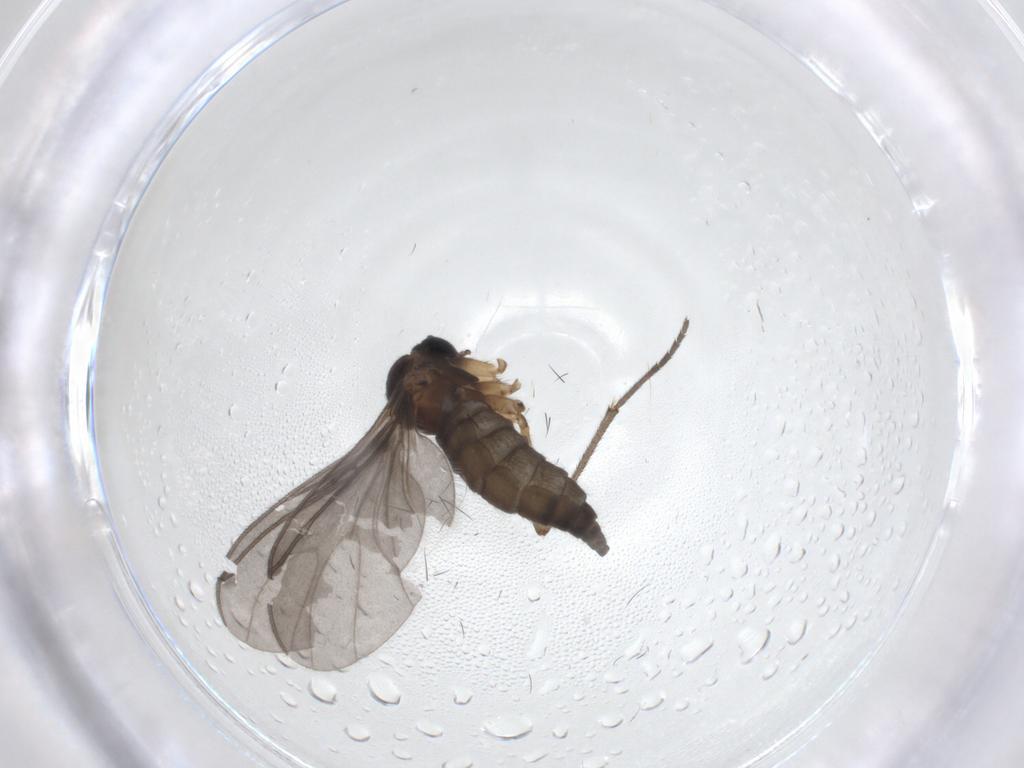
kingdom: Animalia
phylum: Arthropoda
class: Insecta
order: Diptera
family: Sciaridae
